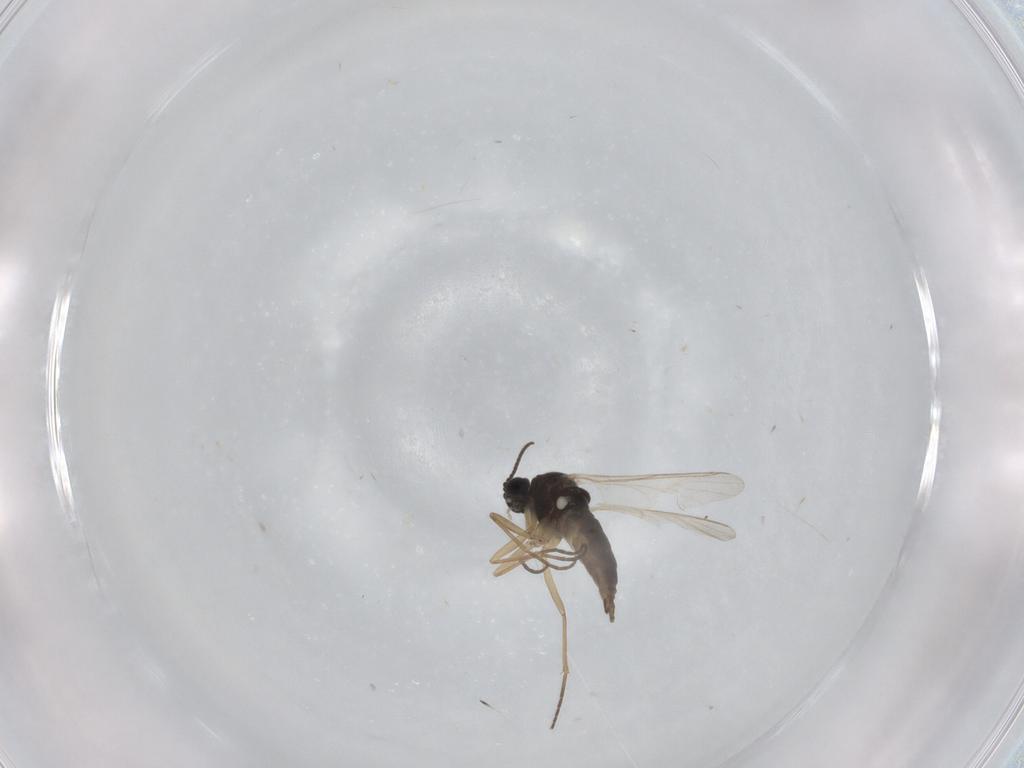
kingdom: Animalia
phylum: Arthropoda
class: Insecta
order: Diptera
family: Sciaridae
